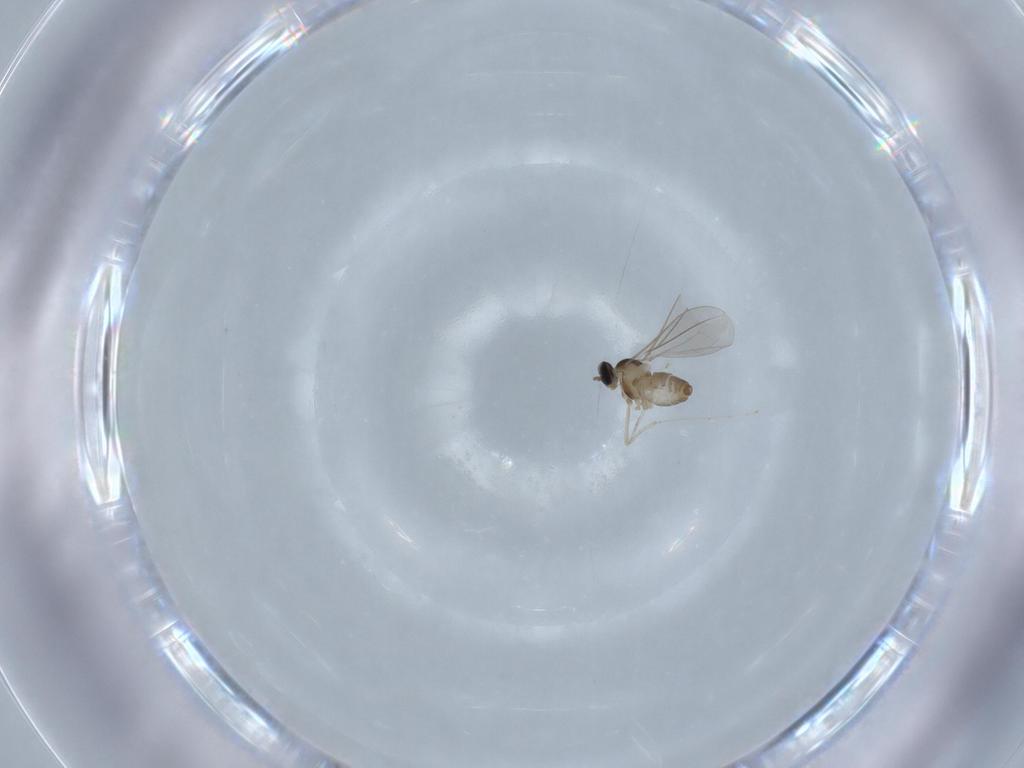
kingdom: Animalia
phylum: Arthropoda
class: Insecta
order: Diptera
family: Cecidomyiidae
